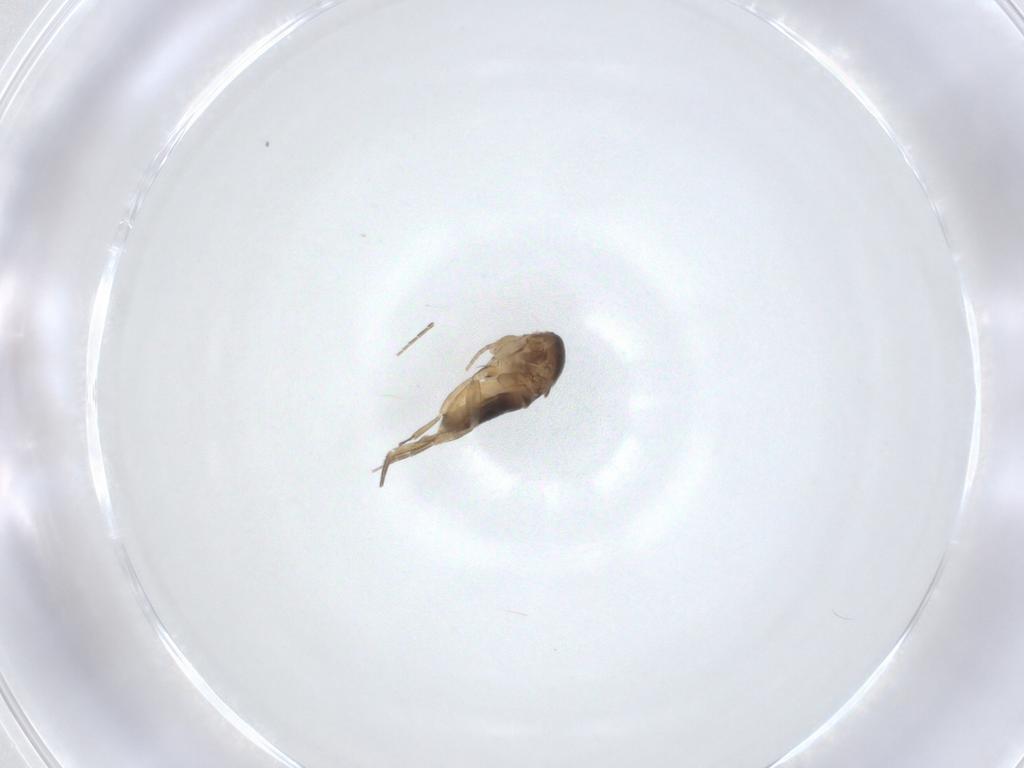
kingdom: Animalia
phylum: Arthropoda
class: Insecta
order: Diptera
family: Phoridae
